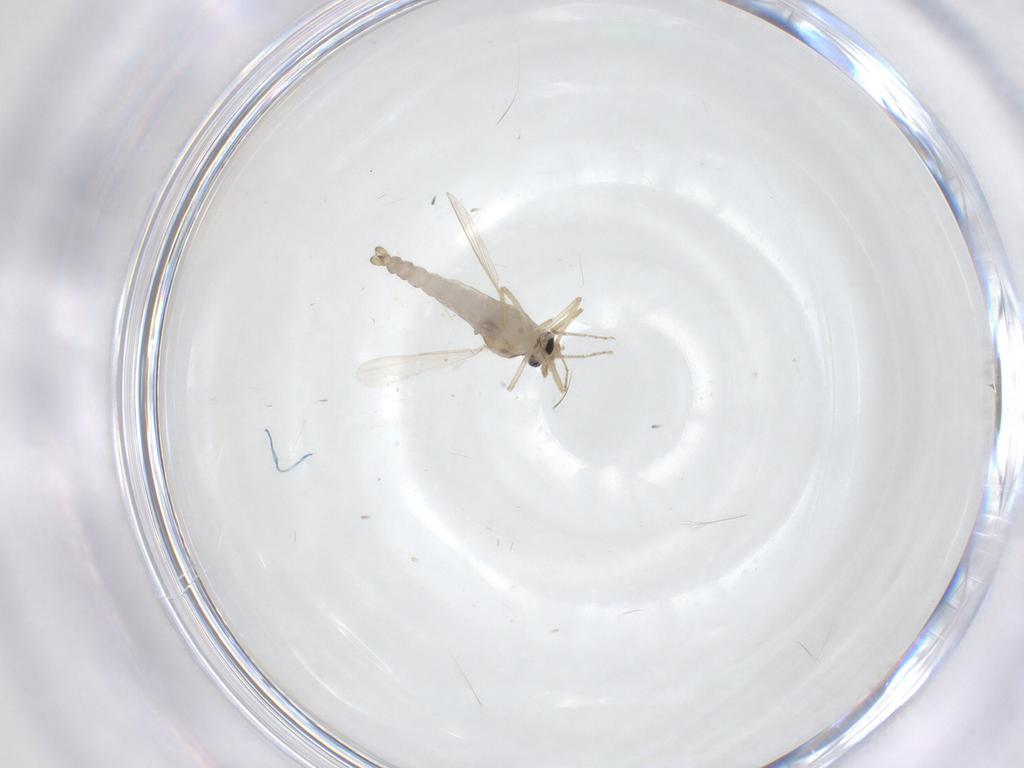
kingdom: Animalia
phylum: Arthropoda
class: Insecta
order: Diptera
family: Ceratopogonidae
